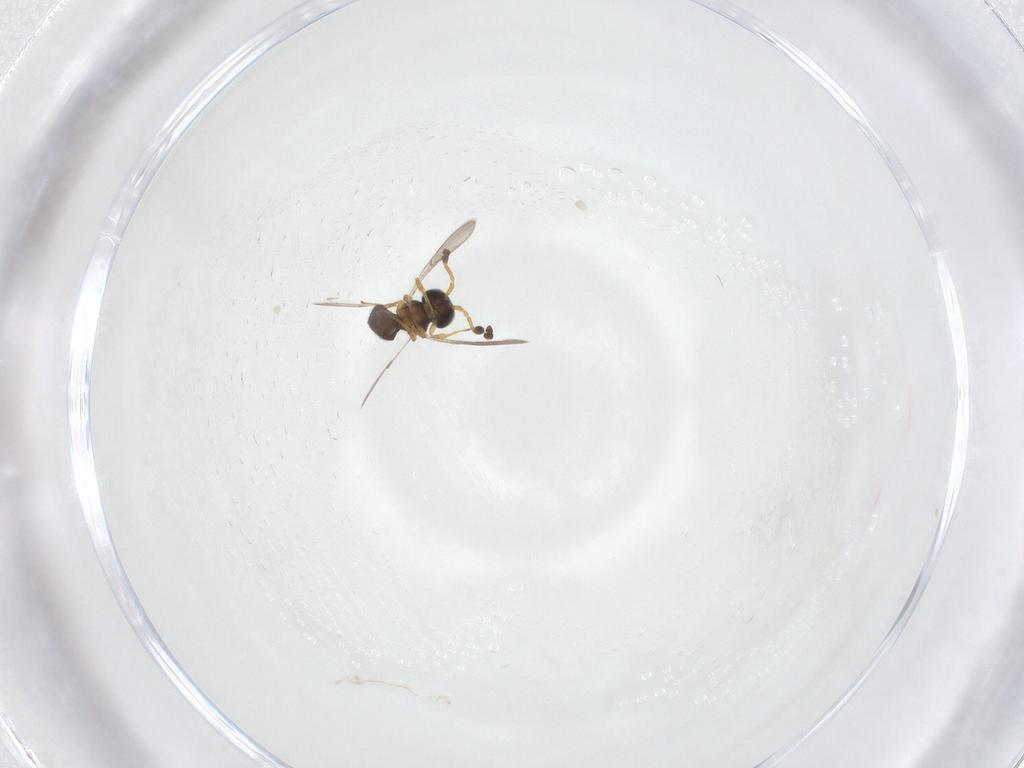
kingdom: Animalia
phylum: Arthropoda
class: Insecta
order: Hymenoptera
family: Scelionidae
